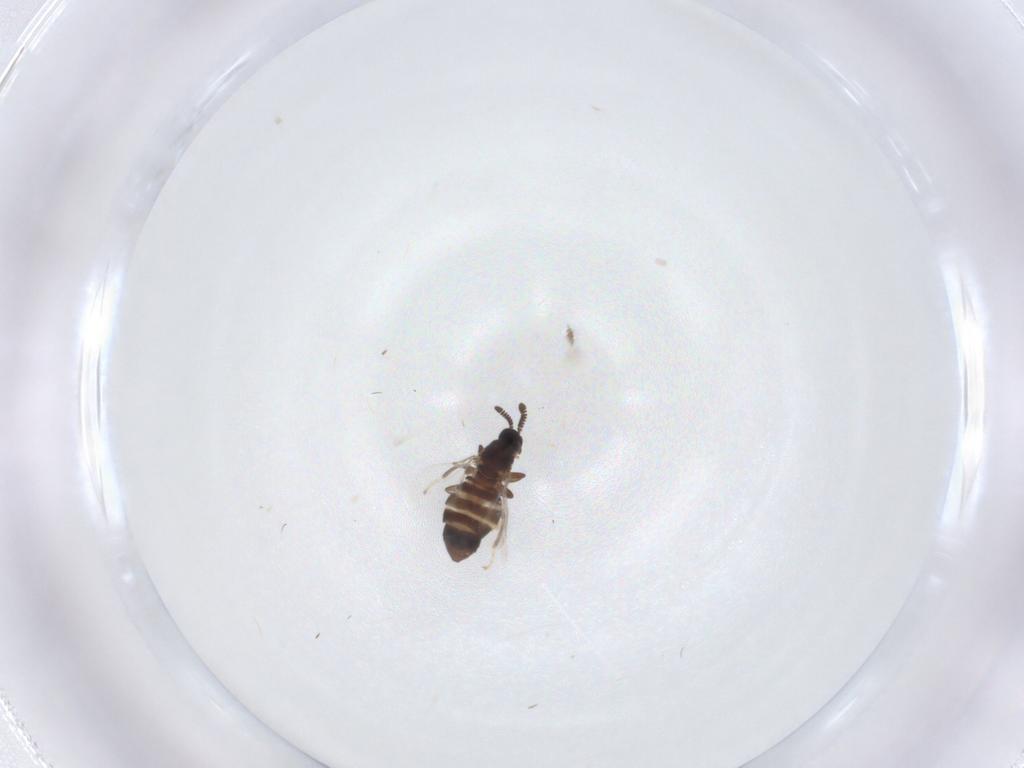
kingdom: Animalia
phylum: Arthropoda
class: Insecta
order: Diptera
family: Scatopsidae
